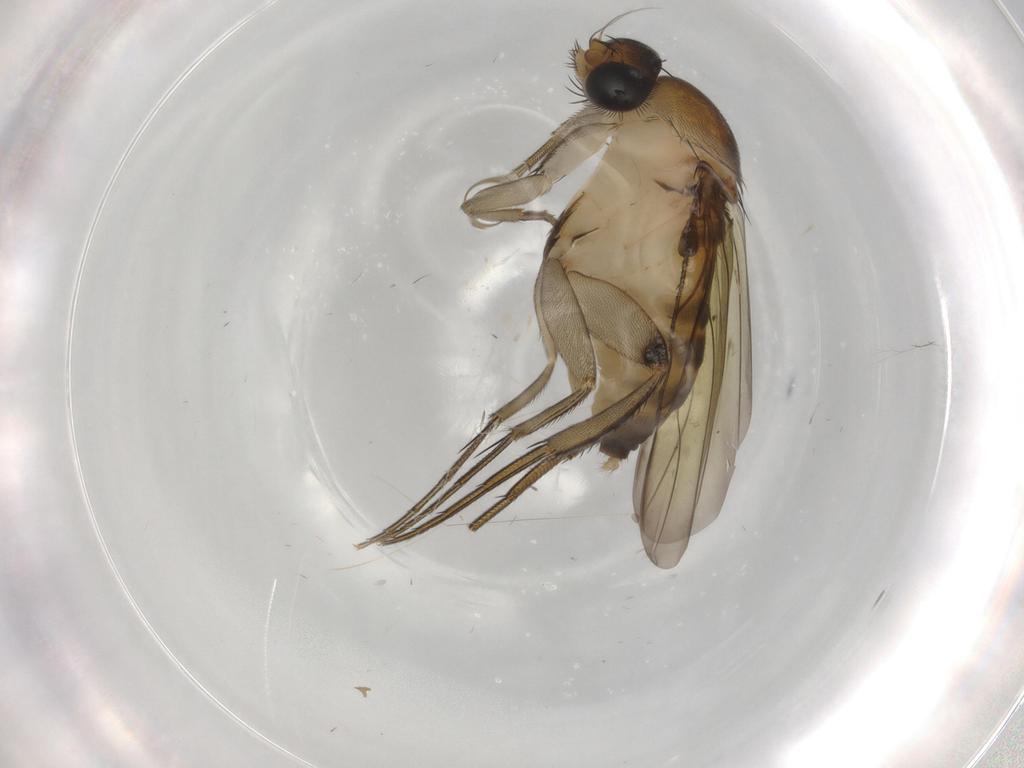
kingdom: Animalia
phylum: Arthropoda
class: Insecta
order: Diptera
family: Phoridae
